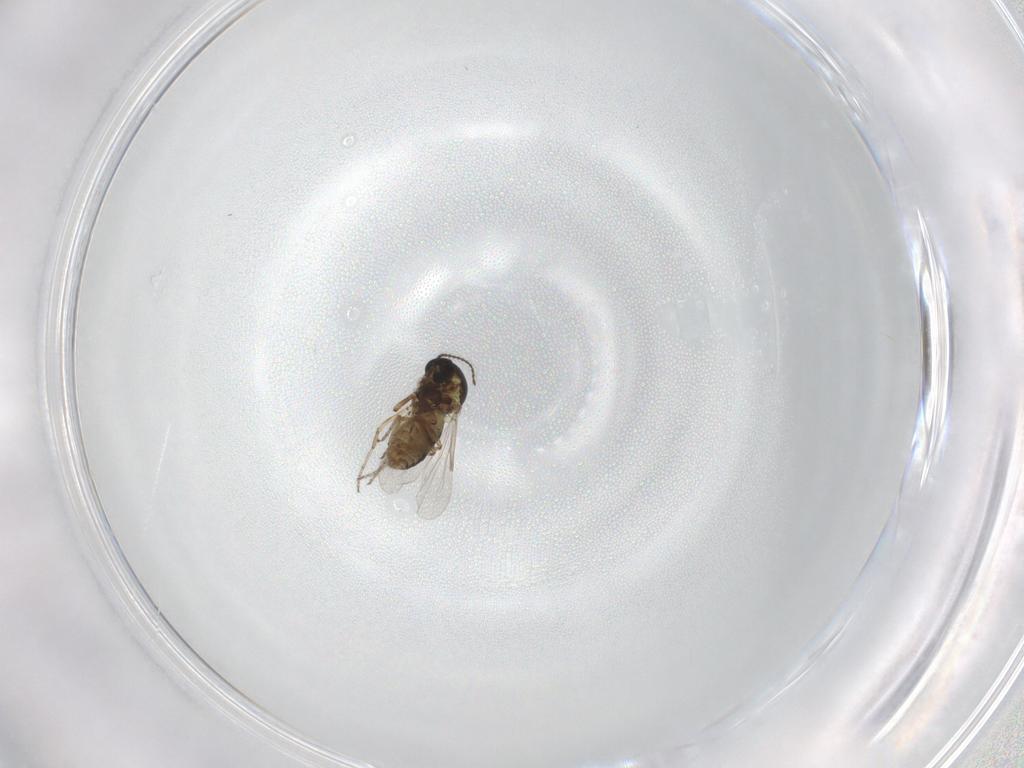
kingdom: Animalia
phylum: Arthropoda
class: Insecta
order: Diptera
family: Ceratopogonidae
